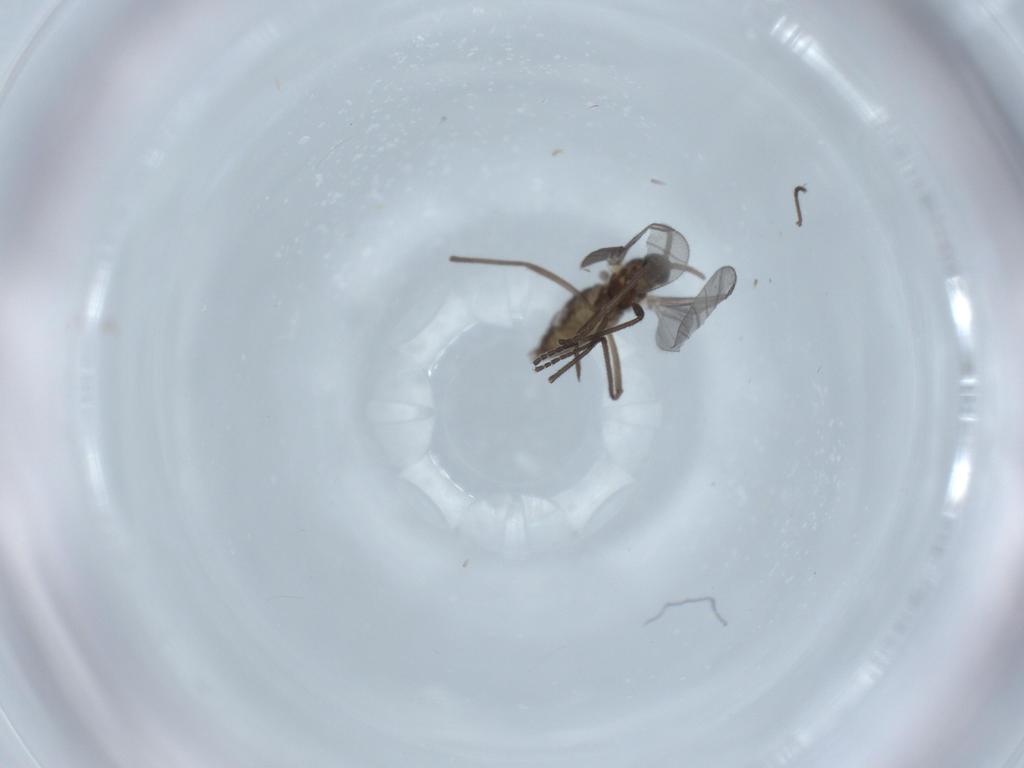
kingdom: Animalia
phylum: Arthropoda
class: Insecta
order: Diptera
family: Cecidomyiidae
